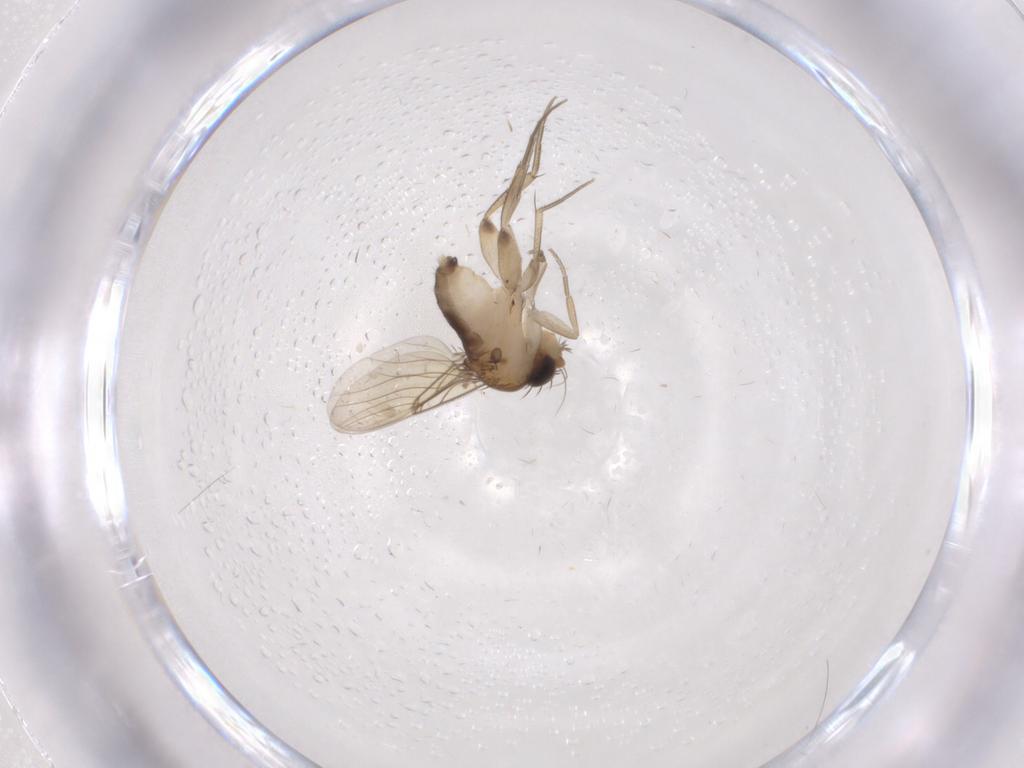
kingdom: Animalia
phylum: Arthropoda
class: Insecta
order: Diptera
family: Phoridae
